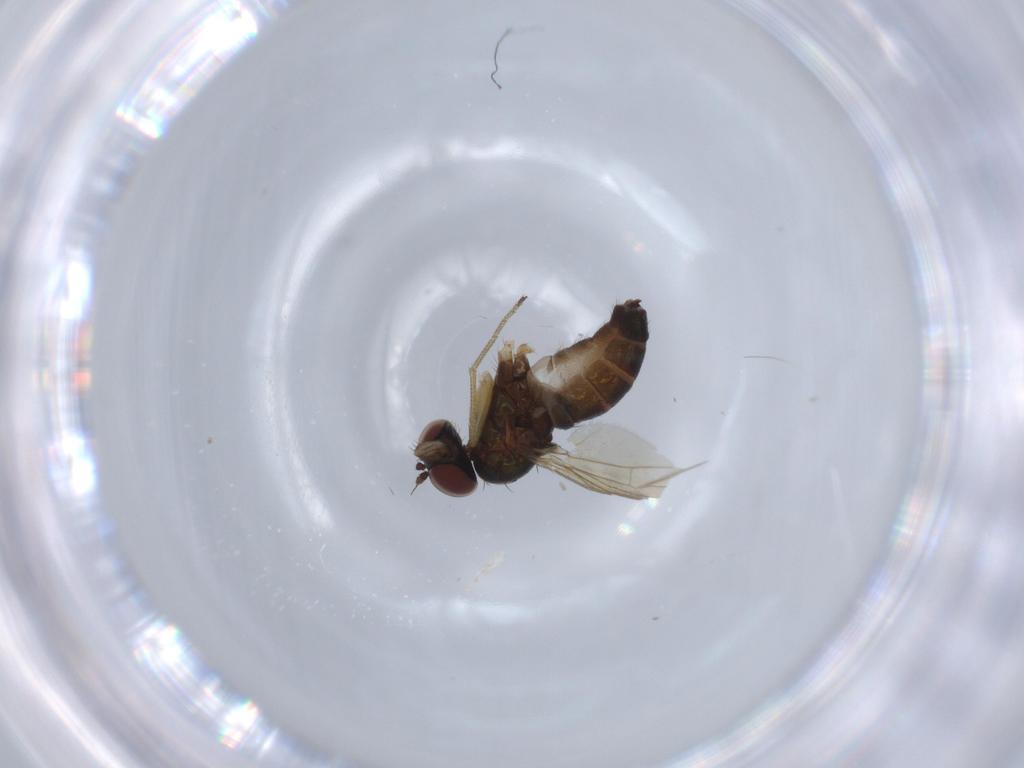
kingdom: Animalia
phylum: Arthropoda
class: Insecta
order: Diptera
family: Dolichopodidae
